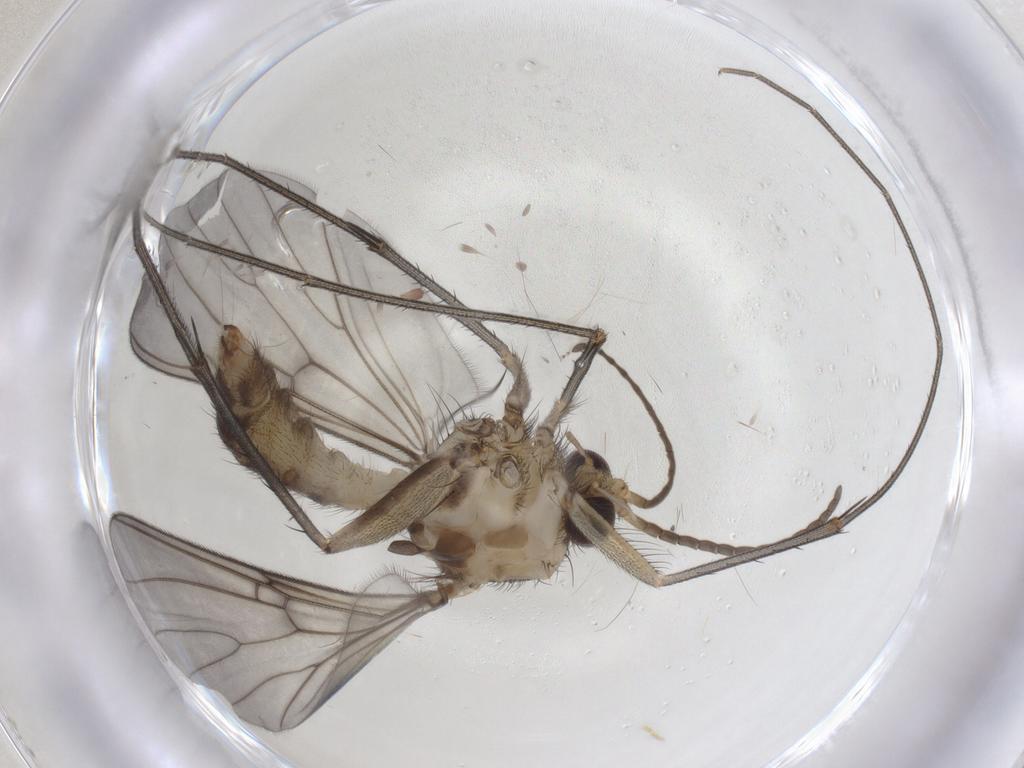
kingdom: Animalia
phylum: Arthropoda
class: Insecta
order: Diptera
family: Mycetophilidae
